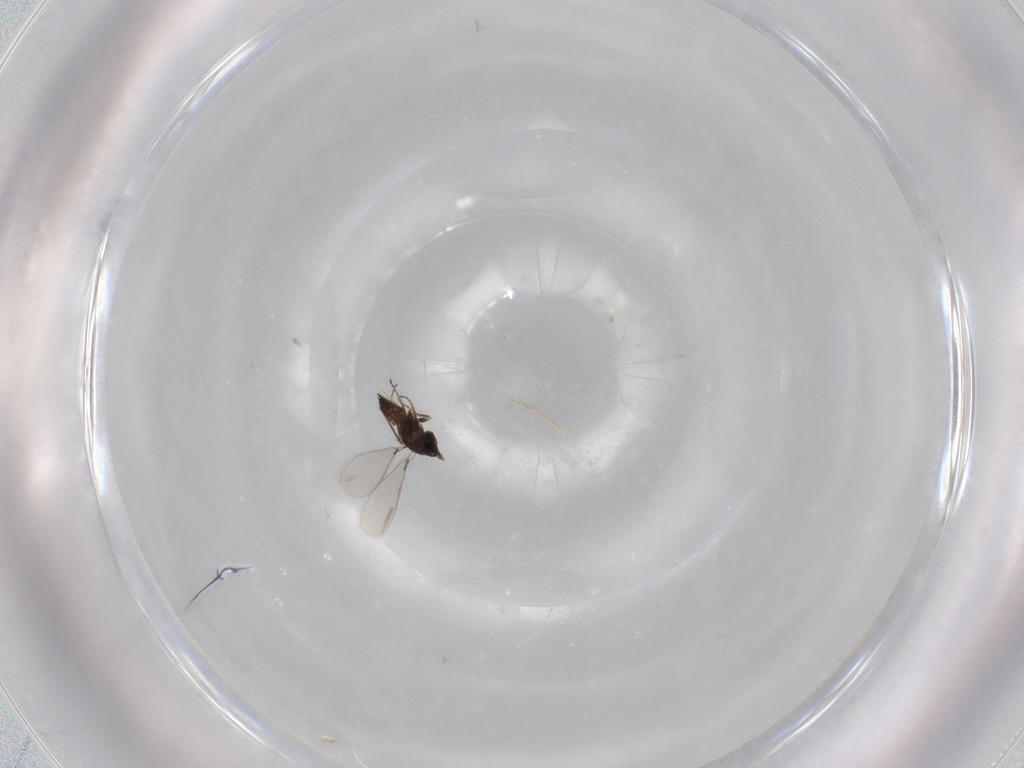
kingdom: Animalia
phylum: Arthropoda
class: Insecta
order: Hymenoptera
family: Mymaridae
